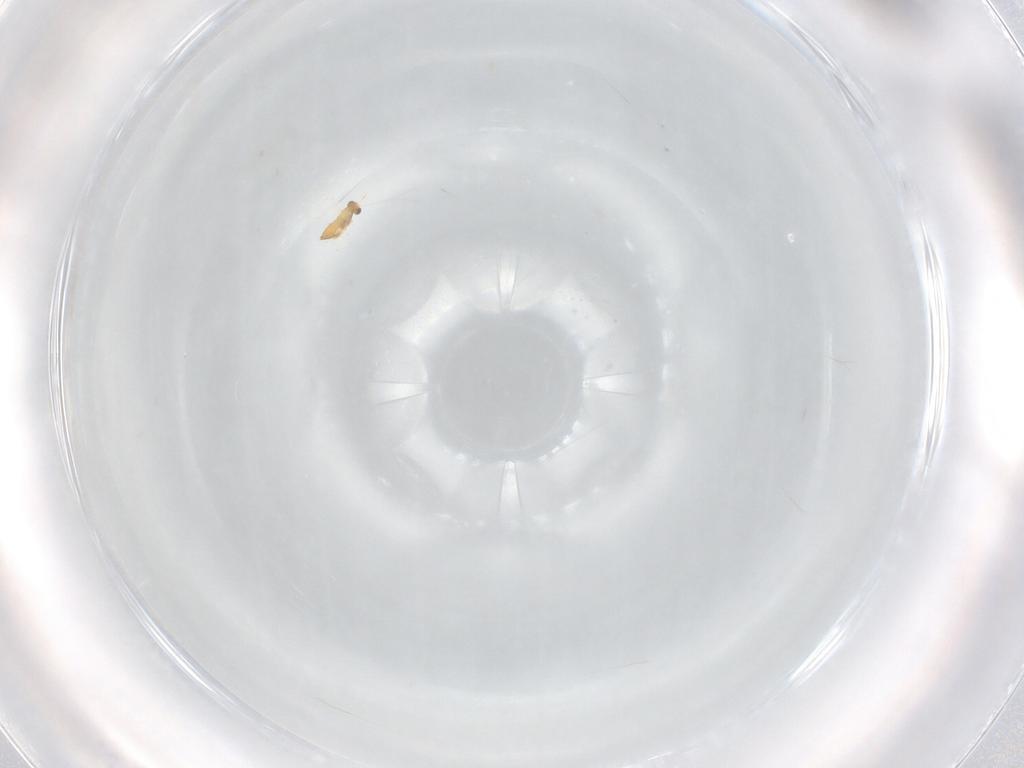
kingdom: Animalia
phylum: Arthropoda
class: Insecta
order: Hymenoptera
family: Trichogrammatidae
